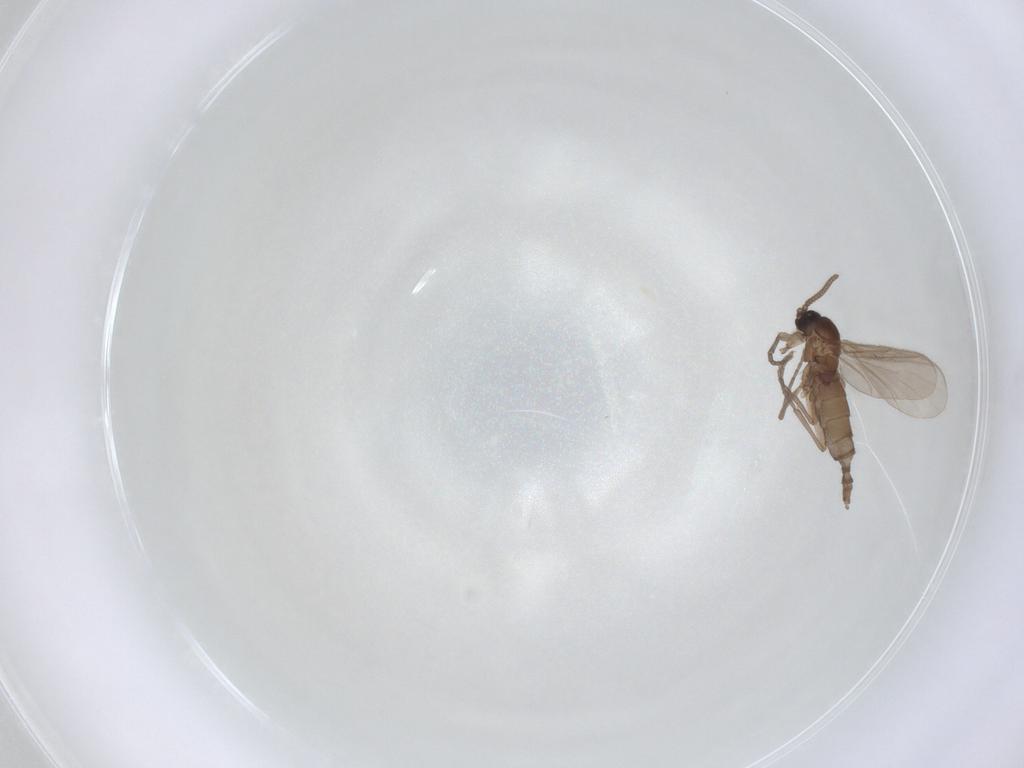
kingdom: Animalia
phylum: Arthropoda
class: Insecta
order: Diptera
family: Sciaridae
